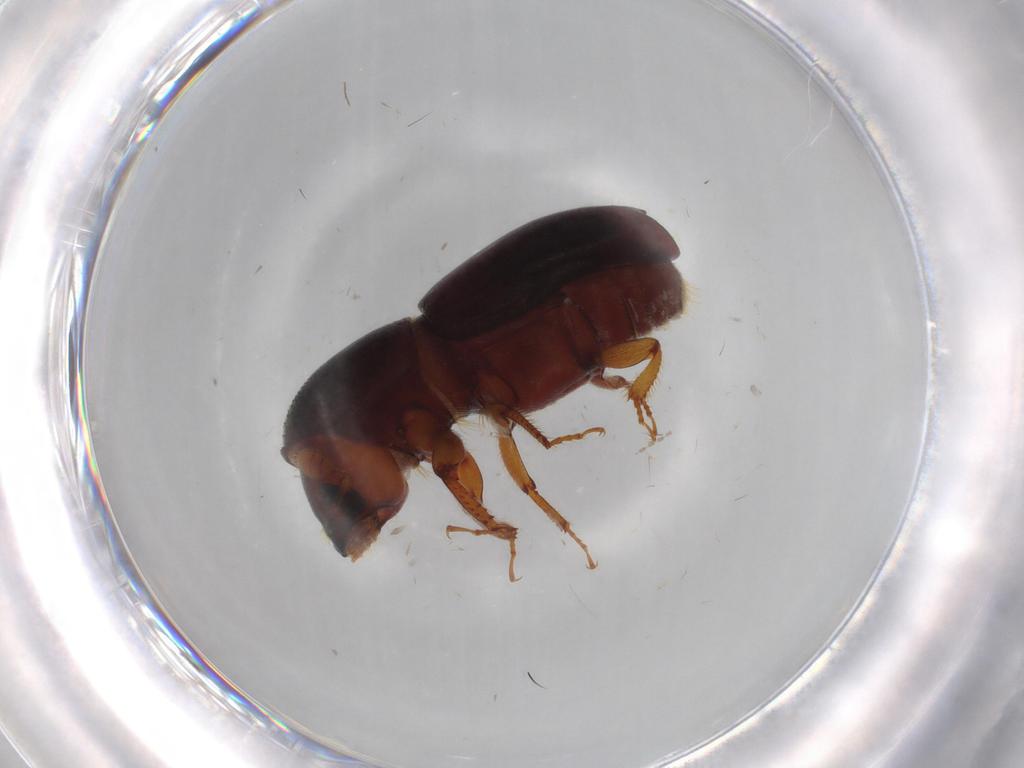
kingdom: Animalia
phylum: Arthropoda
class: Insecta
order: Coleoptera
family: Curculionidae
